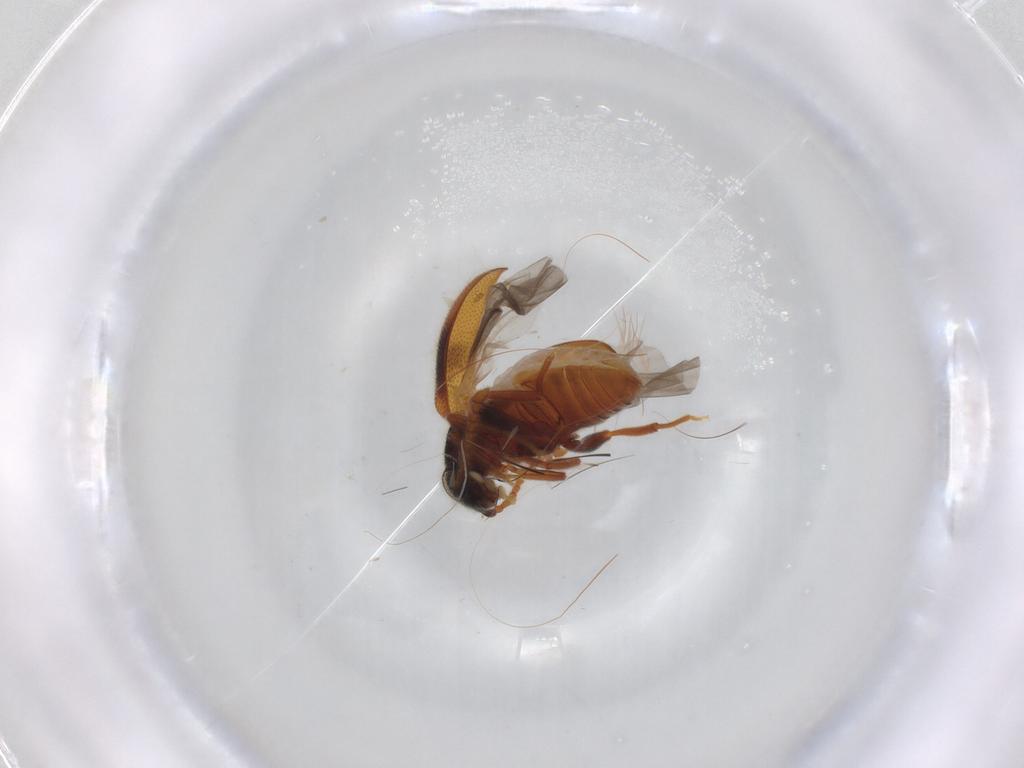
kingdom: Animalia
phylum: Arthropoda
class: Insecta
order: Coleoptera
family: Aderidae
